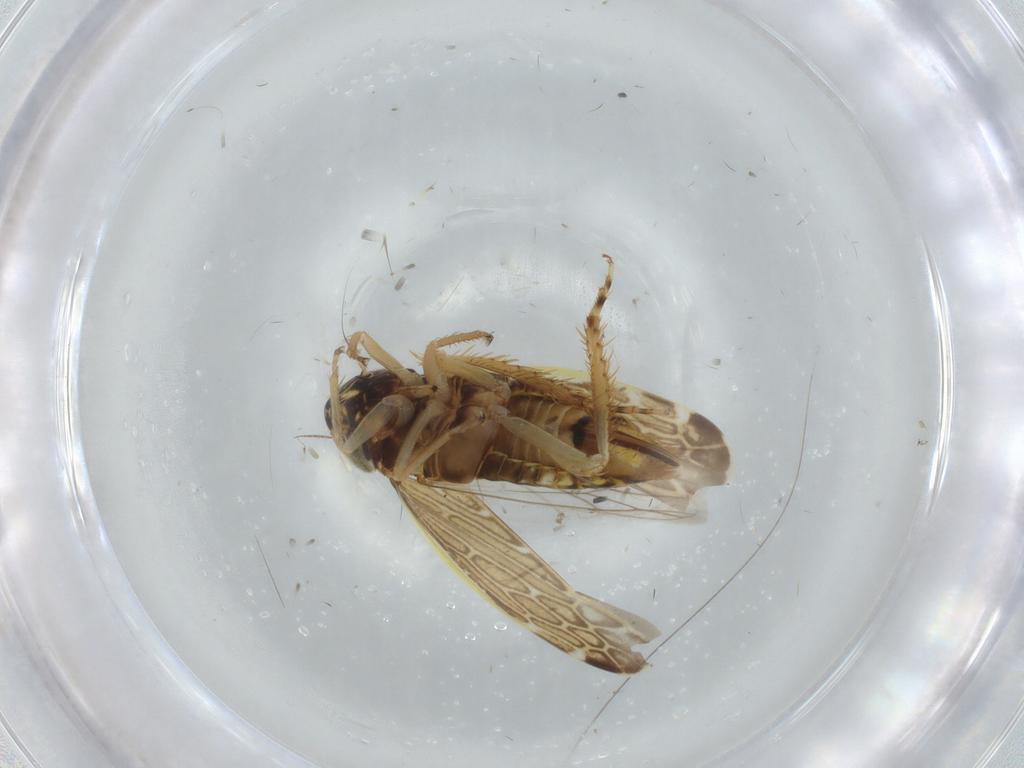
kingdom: Animalia
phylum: Arthropoda
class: Insecta
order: Hemiptera
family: Cicadellidae
